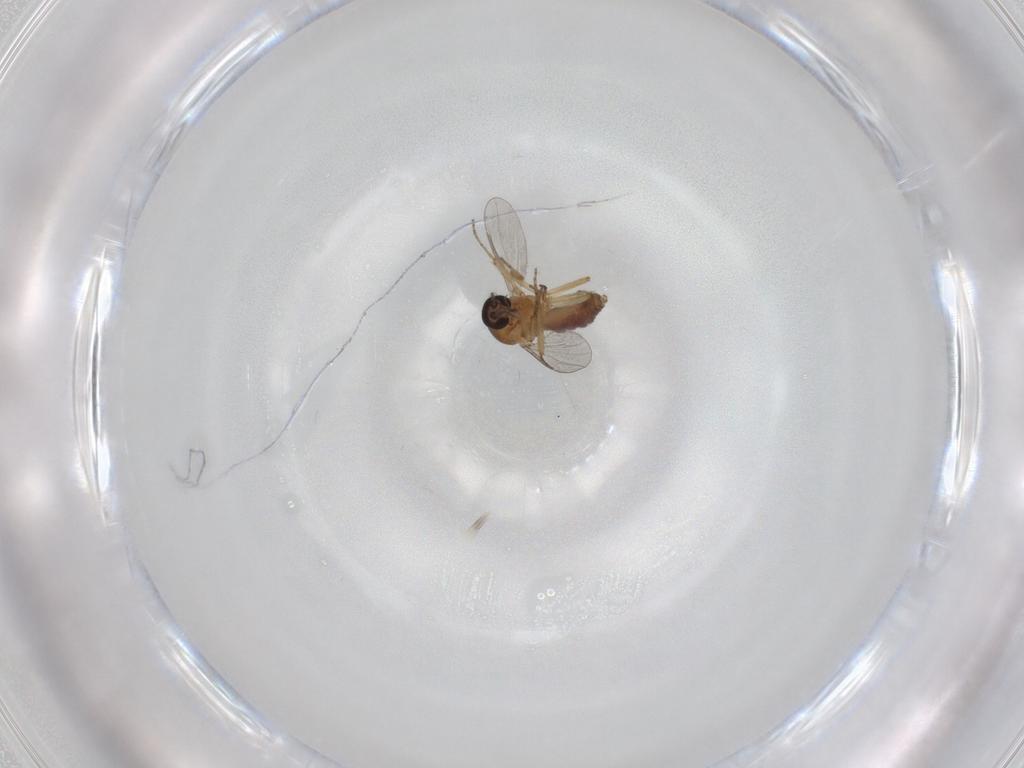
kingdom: Animalia
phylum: Arthropoda
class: Insecta
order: Diptera
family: Ceratopogonidae
